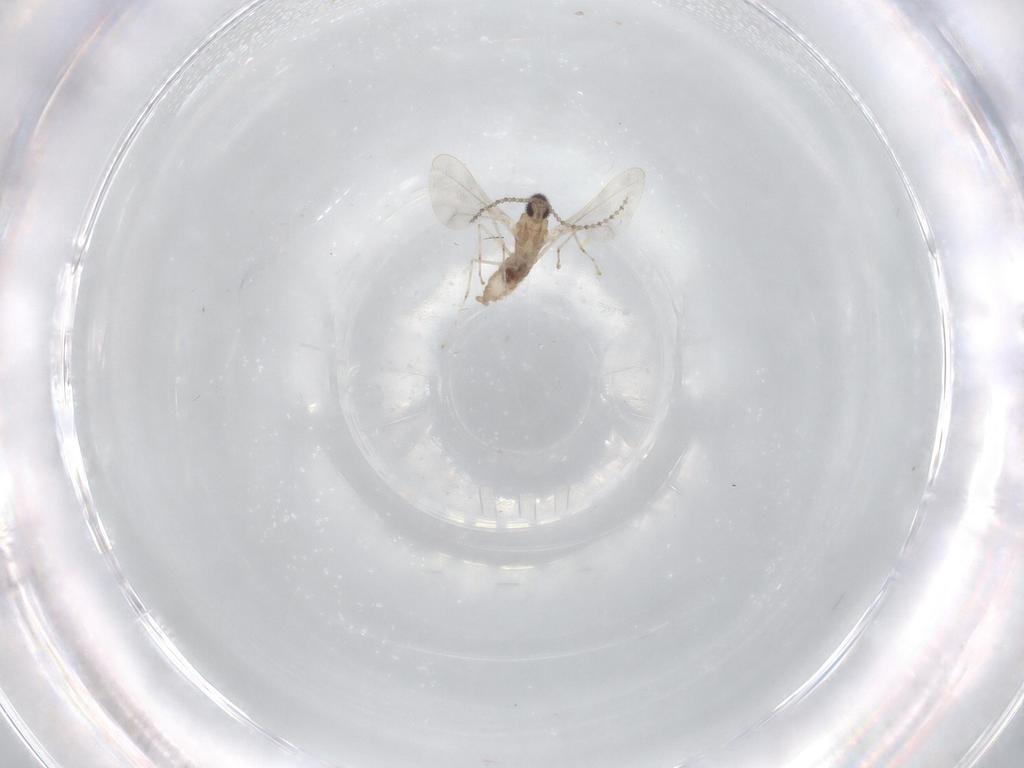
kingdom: Animalia
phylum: Arthropoda
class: Insecta
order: Diptera
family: Cecidomyiidae
